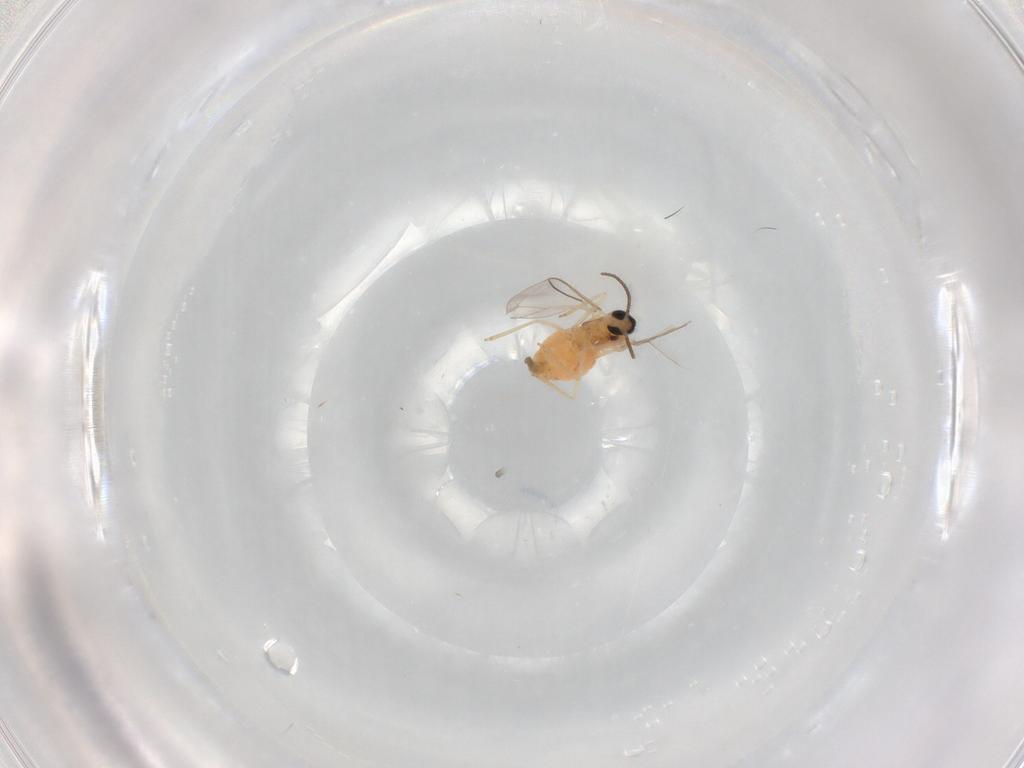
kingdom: Animalia
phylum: Arthropoda
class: Insecta
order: Diptera
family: Cecidomyiidae
